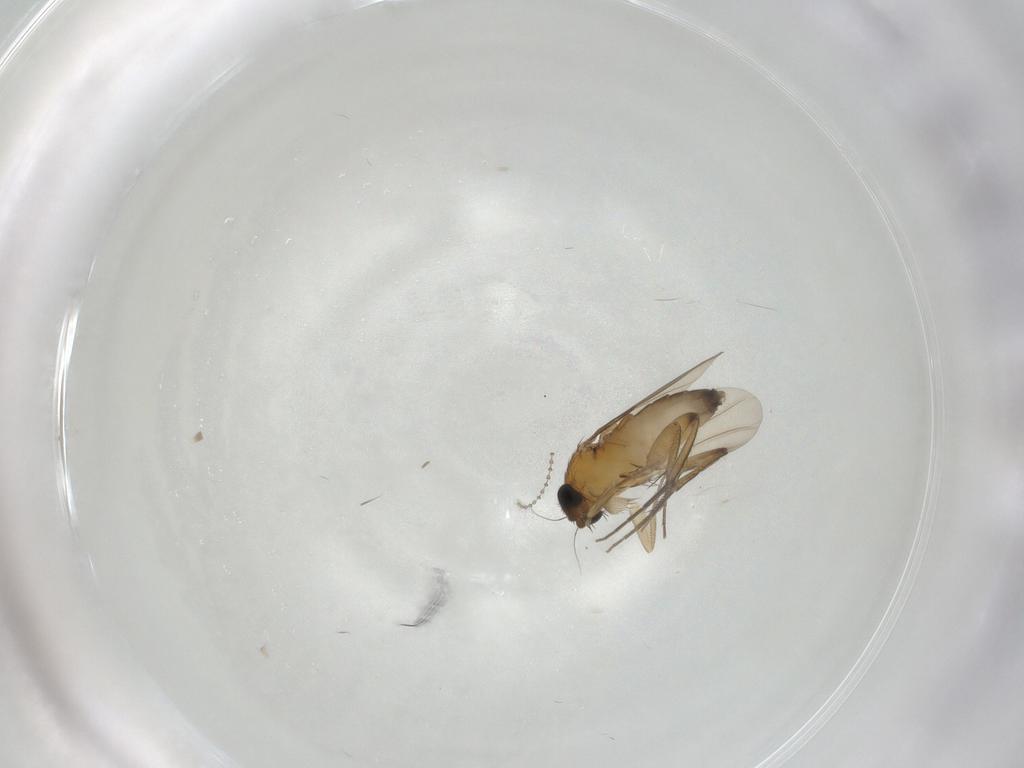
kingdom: Animalia
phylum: Arthropoda
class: Insecta
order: Diptera
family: Phoridae
